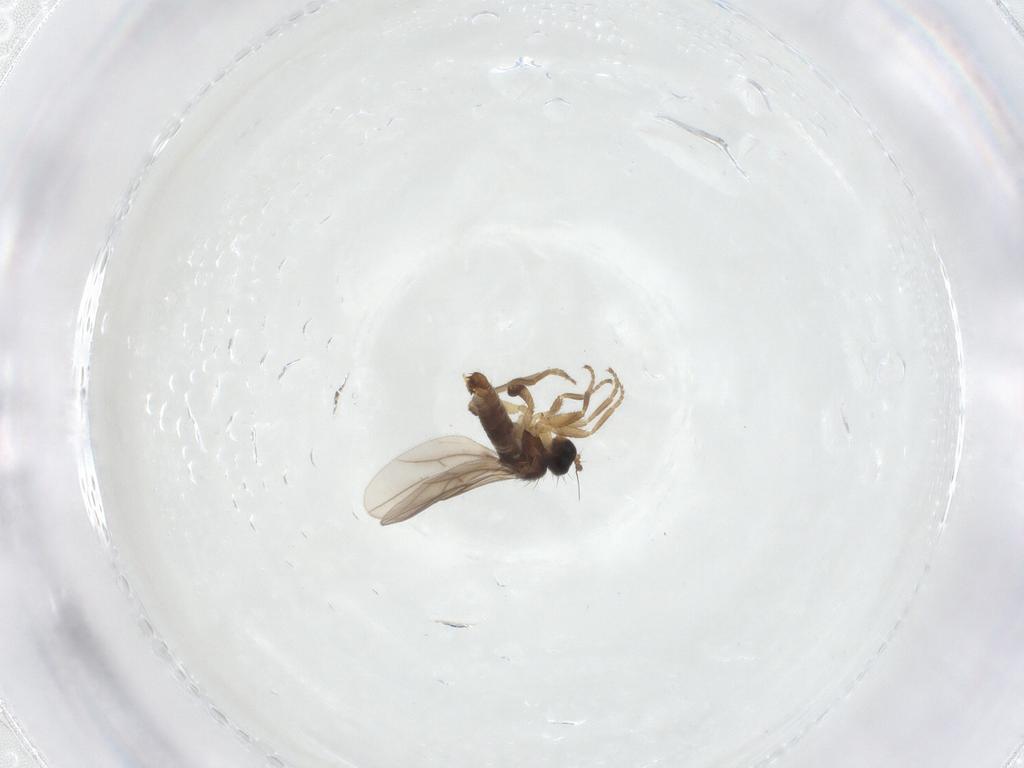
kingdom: Animalia
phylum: Arthropoda
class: Insecta
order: Diptera
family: Hybotidae
